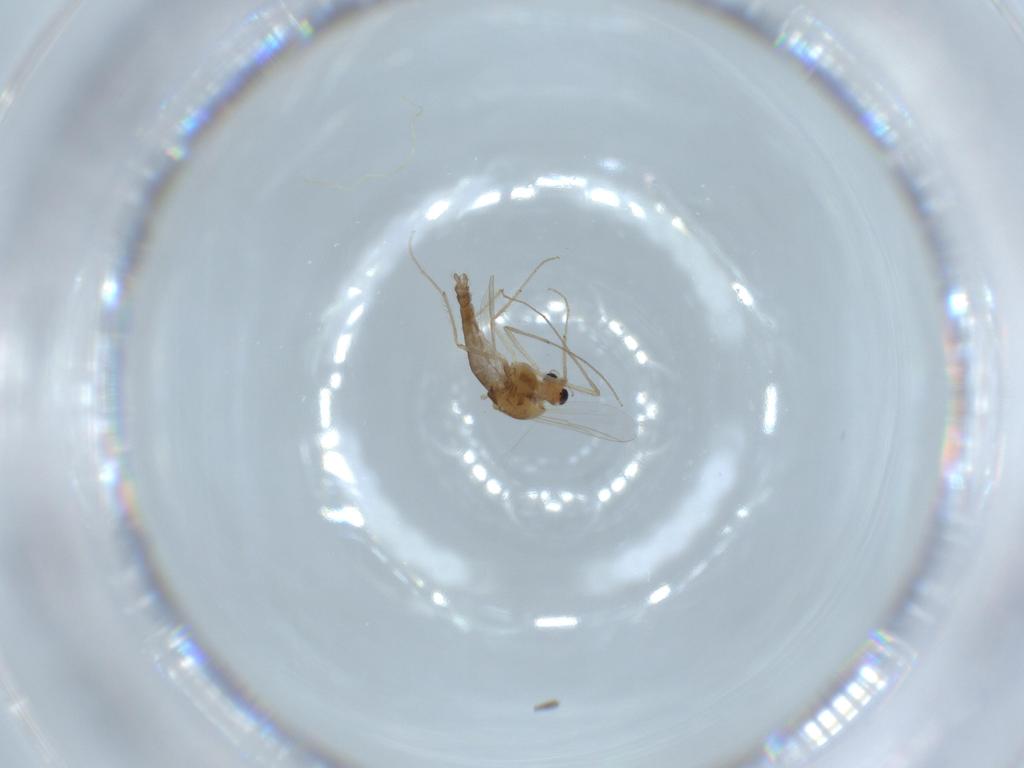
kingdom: Animalia
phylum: Arthropoda
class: Insecta
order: Diptera
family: Chironomidae
